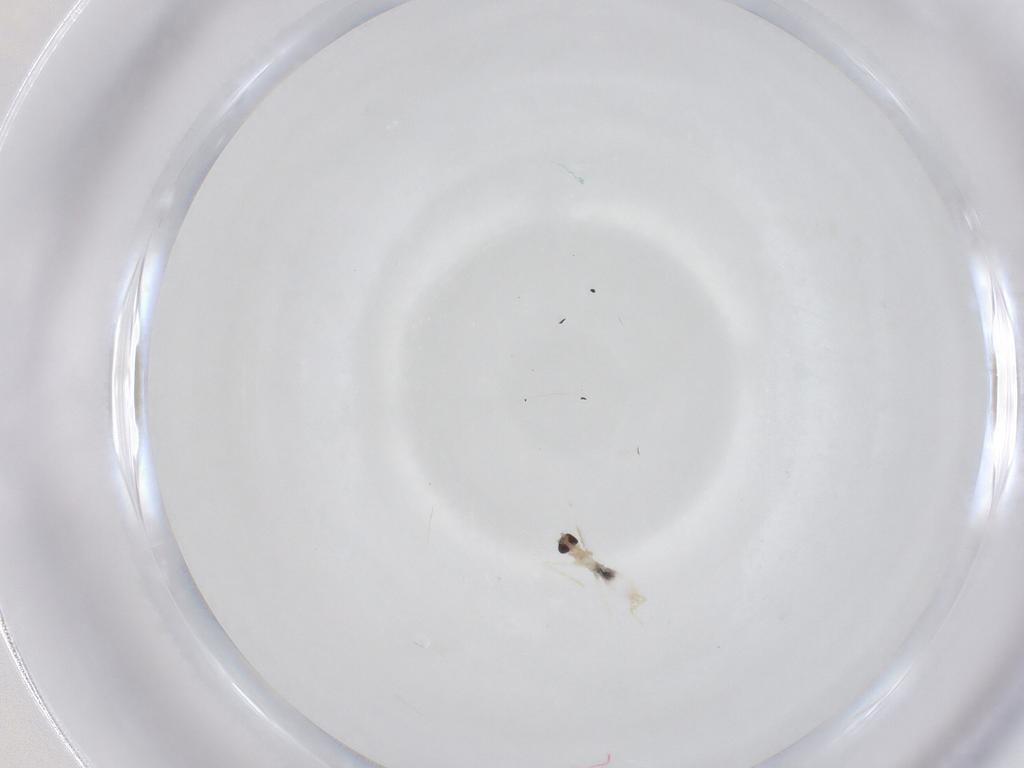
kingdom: Animalia
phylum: Arthropoda
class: Insecta
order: Diptera
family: Cecidomyiidae
